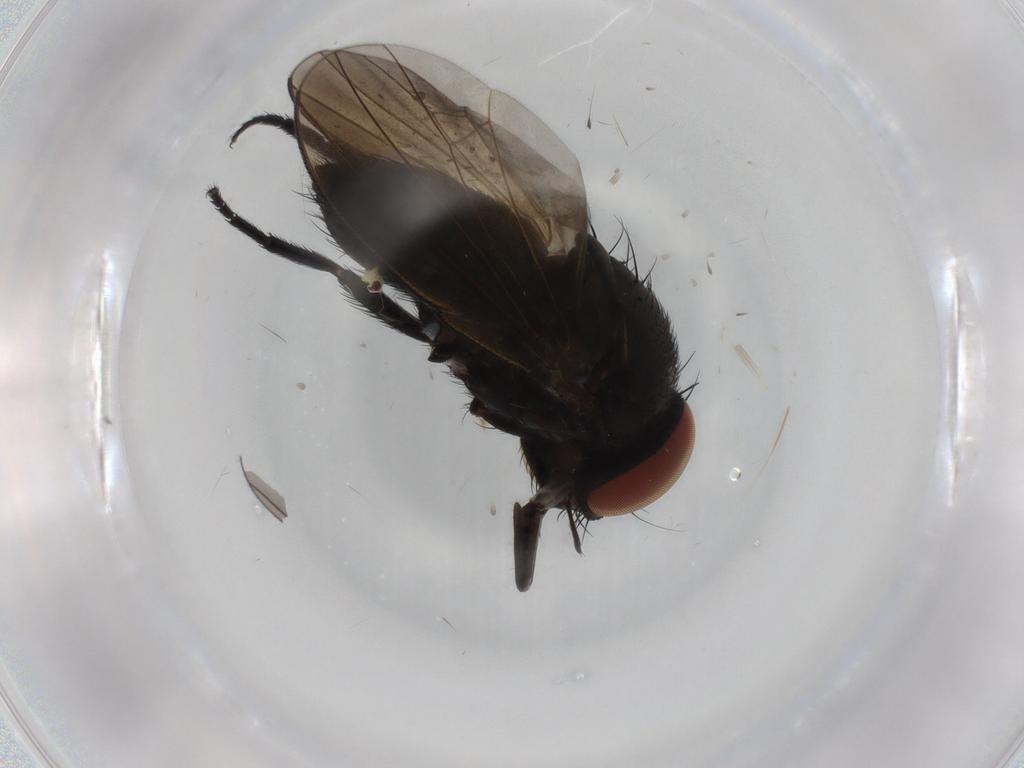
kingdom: Animalia
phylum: Arthropoda
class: Insecta
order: Diptera
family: Milichiidae
